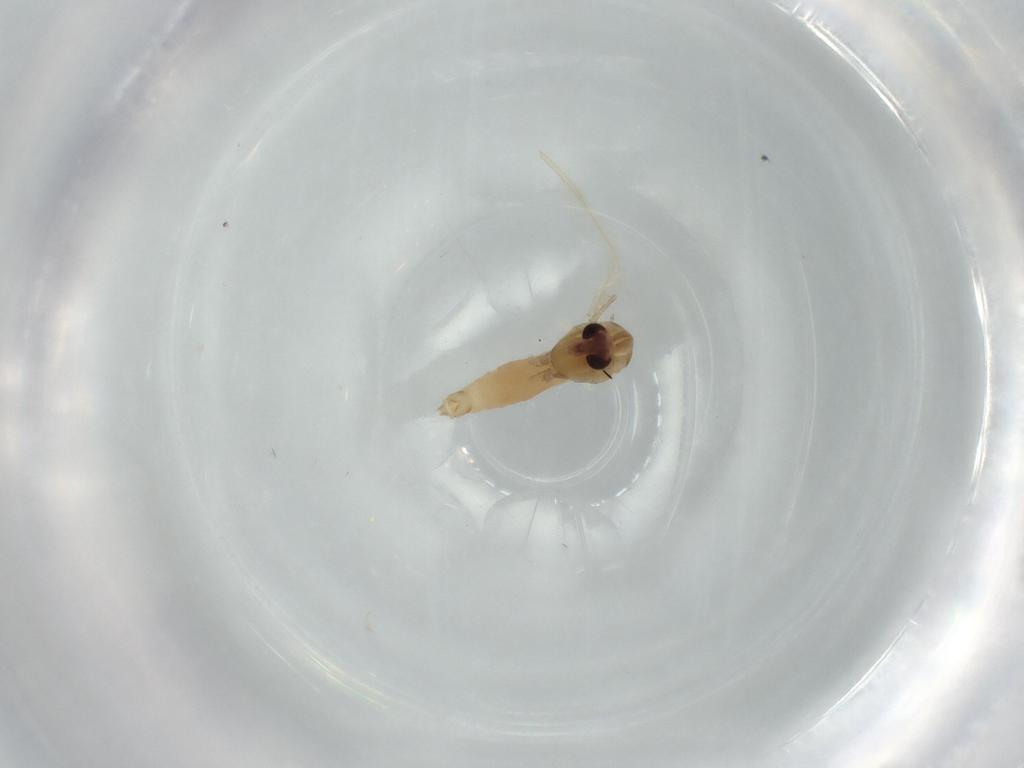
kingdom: Animalia
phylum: Arthropoda
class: Insecta
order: Diptera
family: Chironomidae
